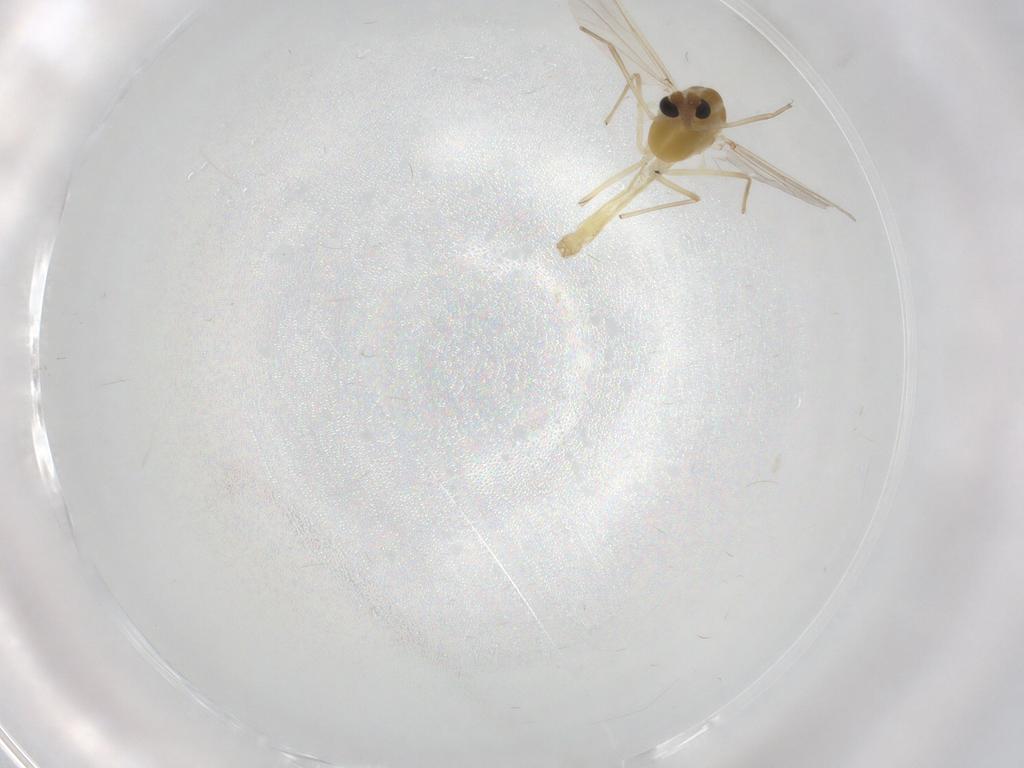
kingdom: Animalia
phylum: Arthropoda
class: Insecta
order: Diptera
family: Chironomidae
